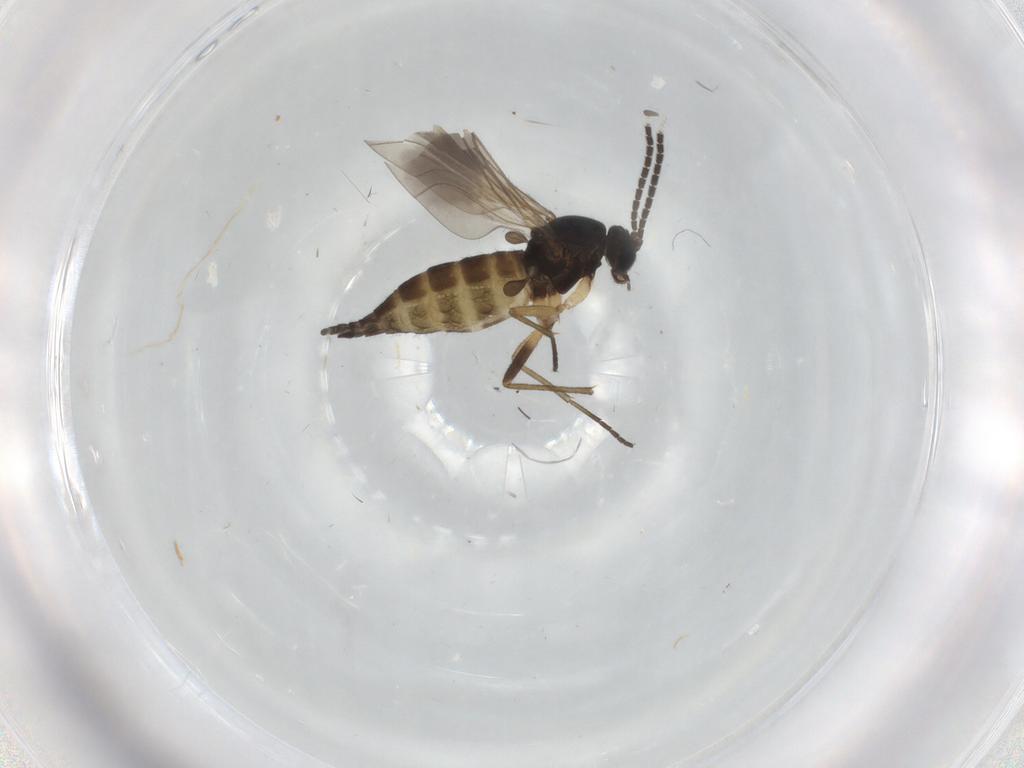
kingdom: Animalia
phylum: Arthropoda
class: Insecta
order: Diptera
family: Sciaridae
